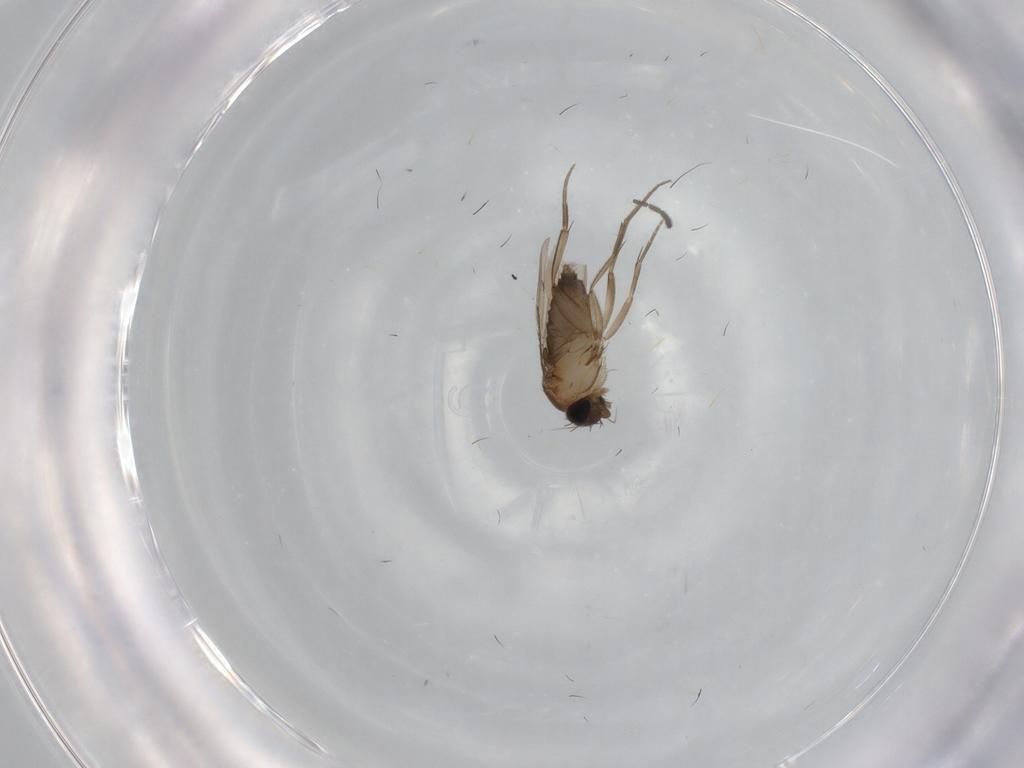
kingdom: Animalia
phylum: Arthropoda
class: Insecta
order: Diptera
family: Phoridae
